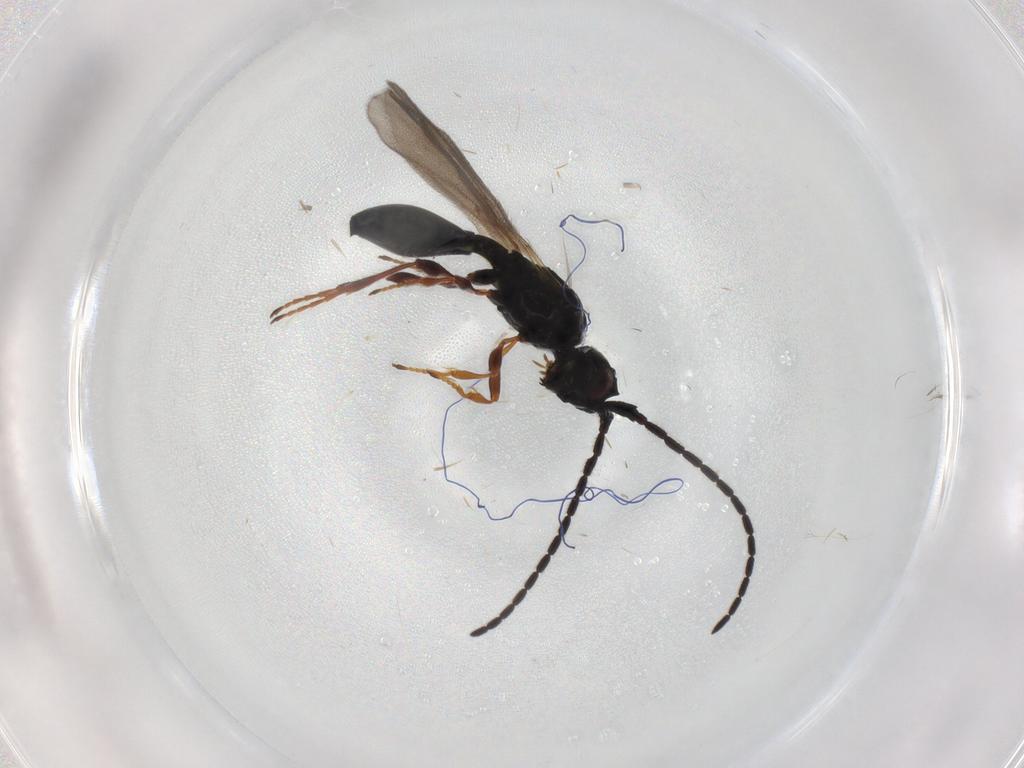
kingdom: Animalia
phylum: Arthropoda
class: Insecta
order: Hymenoptera
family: Diapriidae
